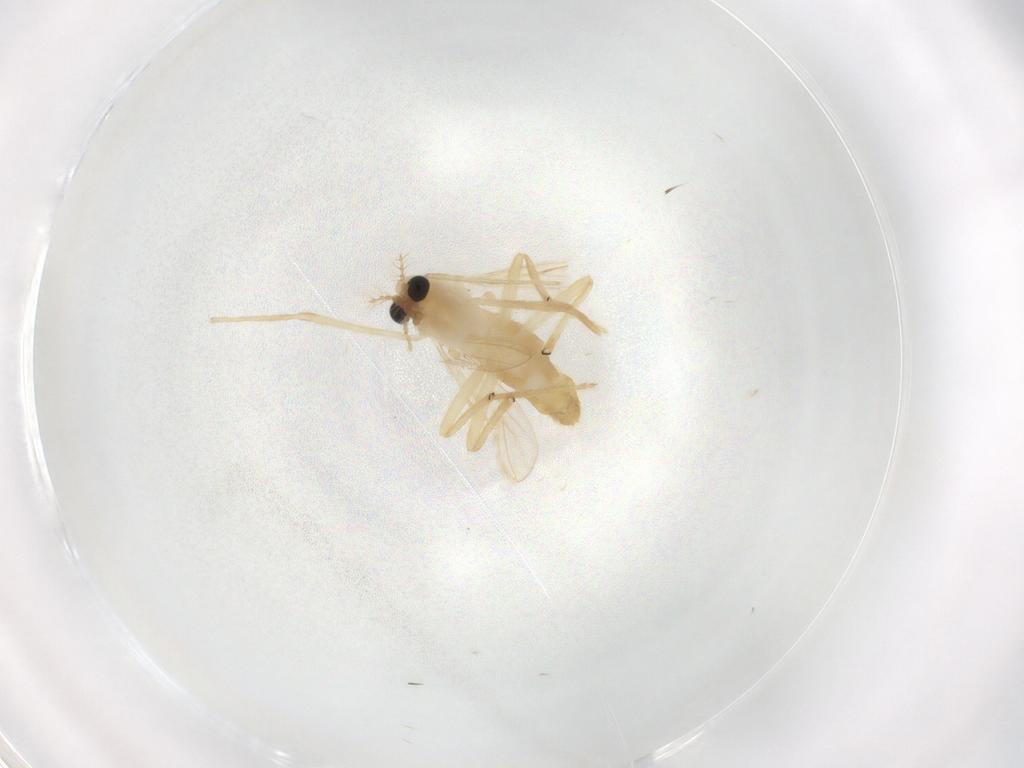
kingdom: Animalia
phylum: Arthropoda
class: Insecta
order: Diptera
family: Chironomidae
